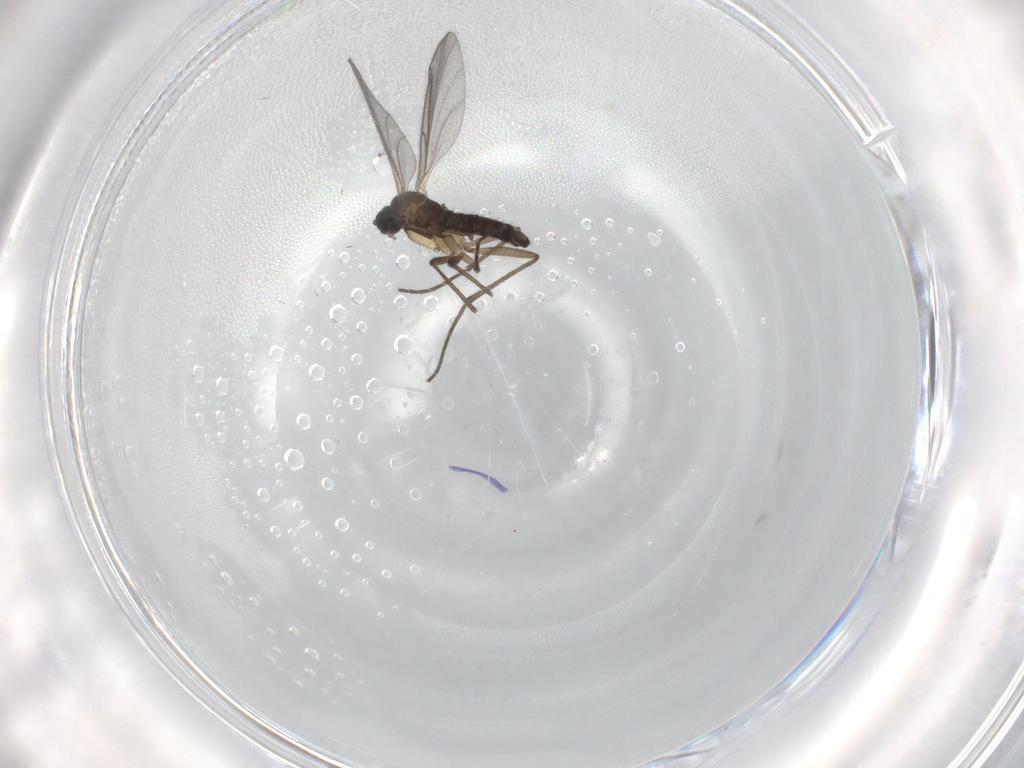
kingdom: Animalia
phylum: Arthropoda
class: Insecta
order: Diptera
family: Sciaridae
